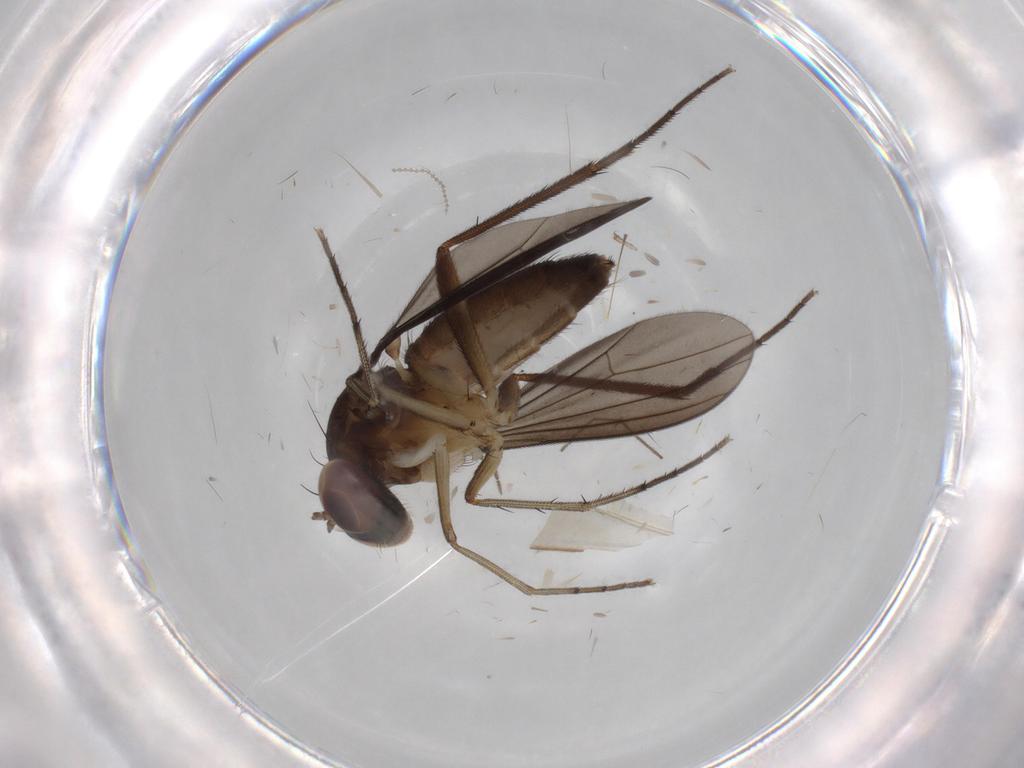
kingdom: Animalia
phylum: Arthropoda
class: Insecta
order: Diptera
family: Dolichopodidae
